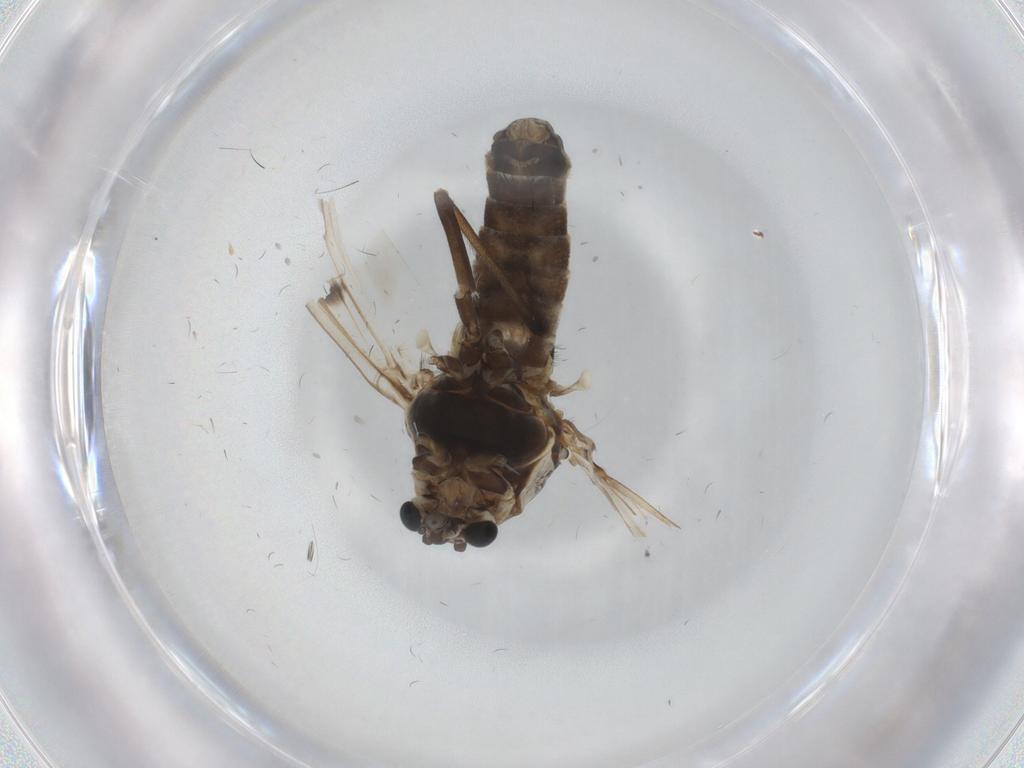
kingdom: Animalia
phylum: Arthropoda
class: Insecta
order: Diptera
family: Chironomidae
